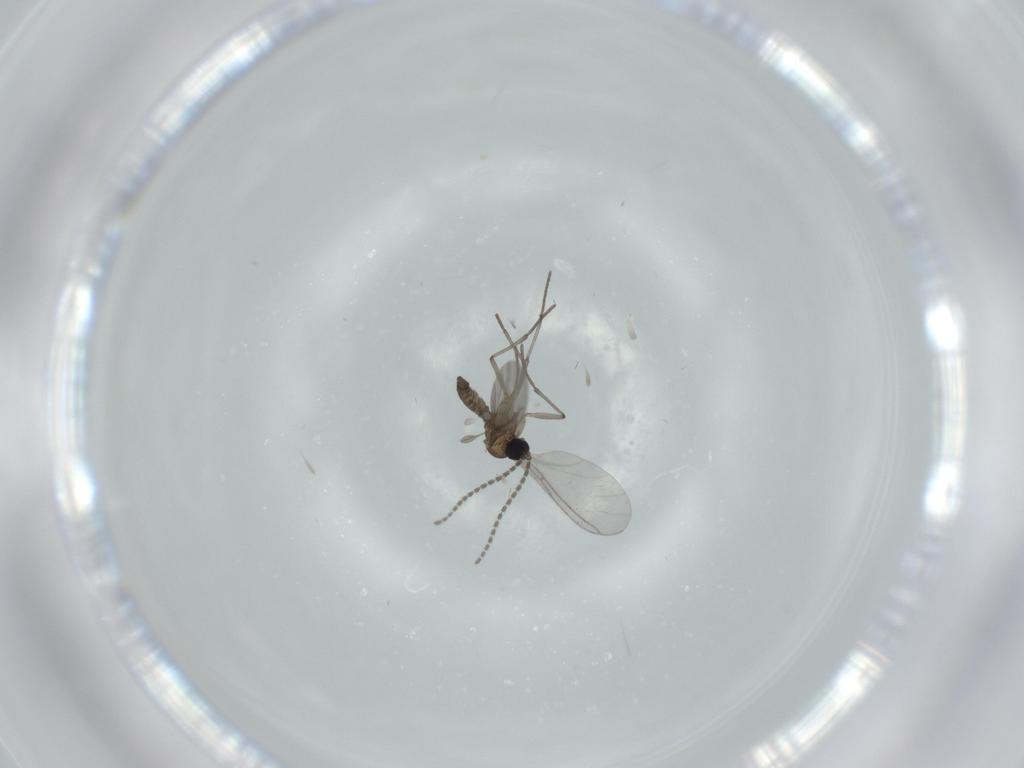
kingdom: Animalia
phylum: Arthropoda
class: Insecta
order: Diptera
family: Sciaridae
